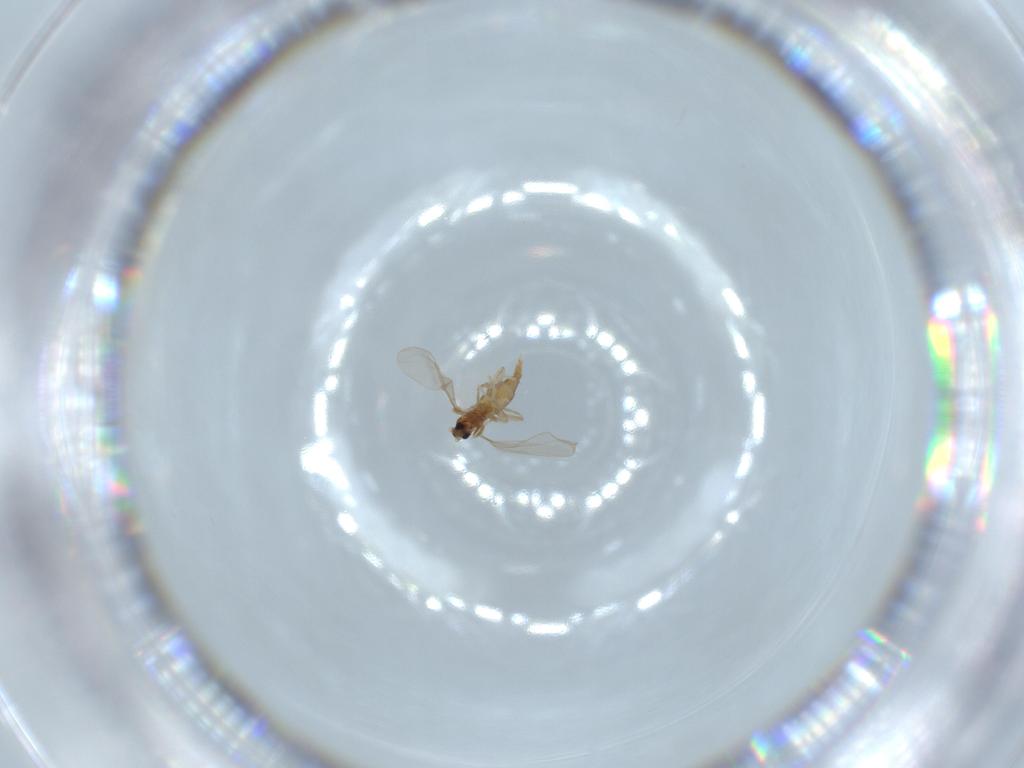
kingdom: Animalia
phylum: Arthropoda
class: Insecta
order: Diptera
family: Cecidomyiidae
